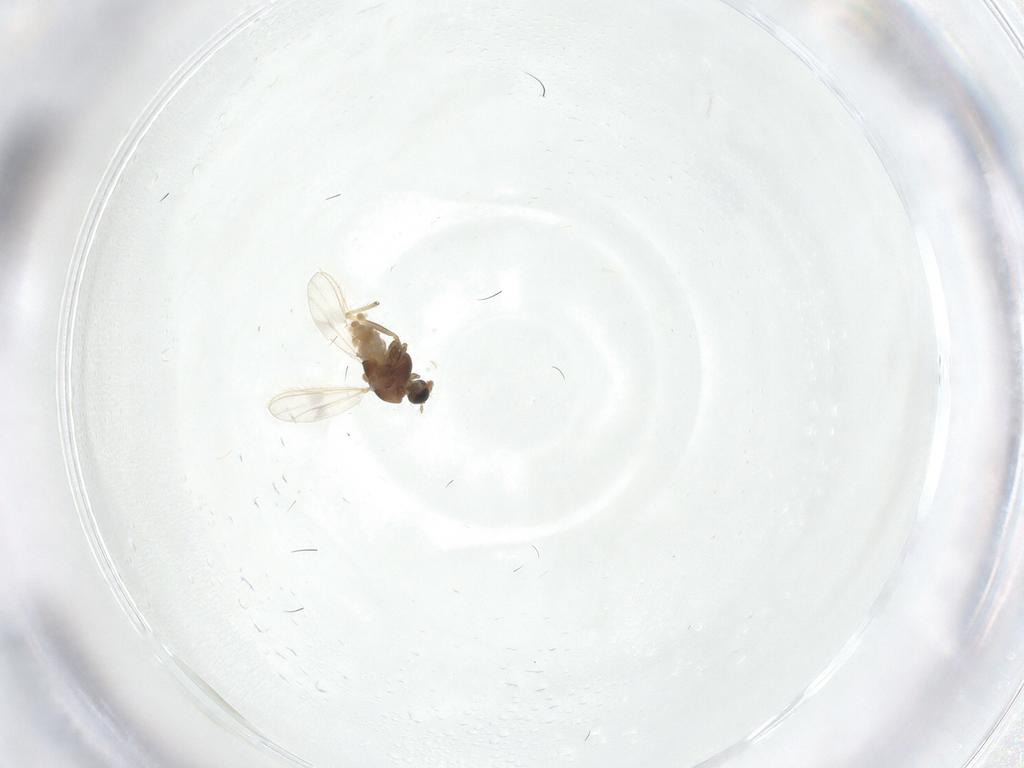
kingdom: Animalia
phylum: Arthropoda
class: Insecta
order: Diptera
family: Chironomidae
